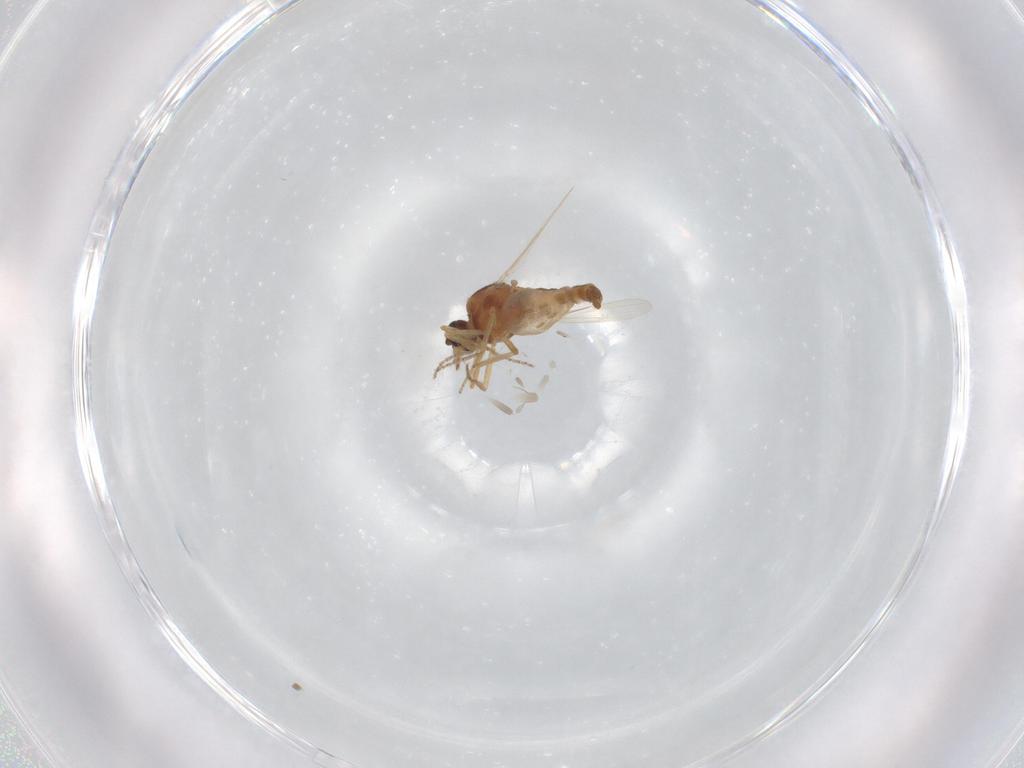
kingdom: Animalia
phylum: Arthropoda
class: Insecta
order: Diptera
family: Ceratopogonidae
